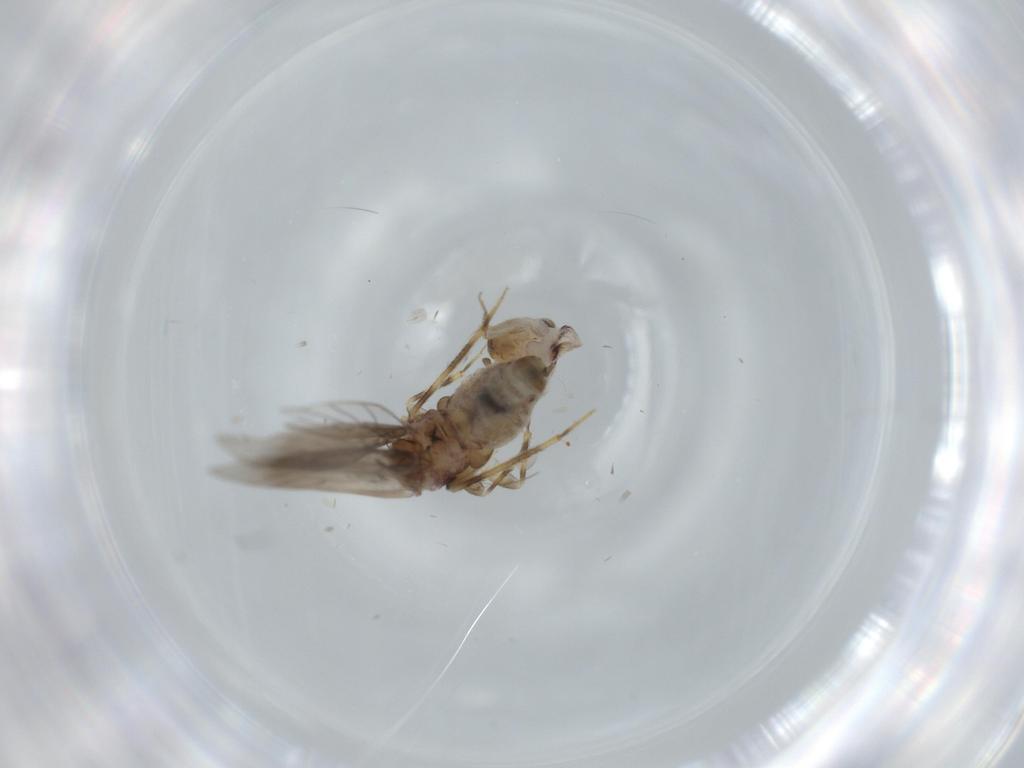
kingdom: Animalia
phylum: Arthropoda
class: Insecta
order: Psocodea
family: Lepidopsocidae
